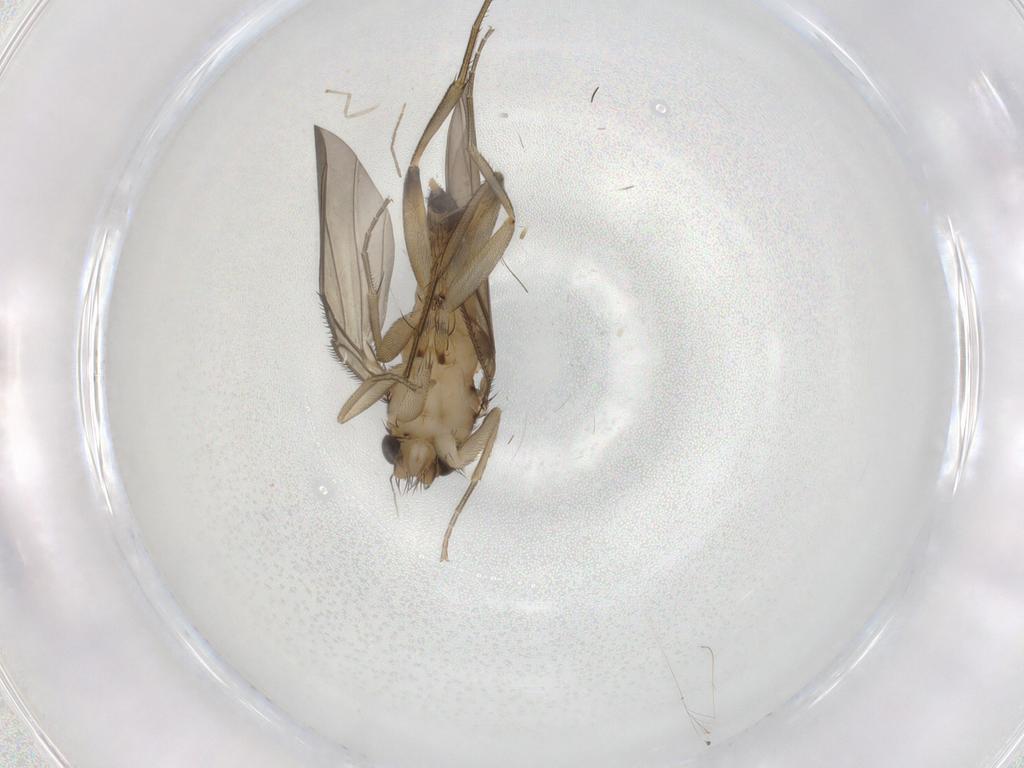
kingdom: Animalia
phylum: Arthropoda
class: Insecta
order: Diptera
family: Phoridae
